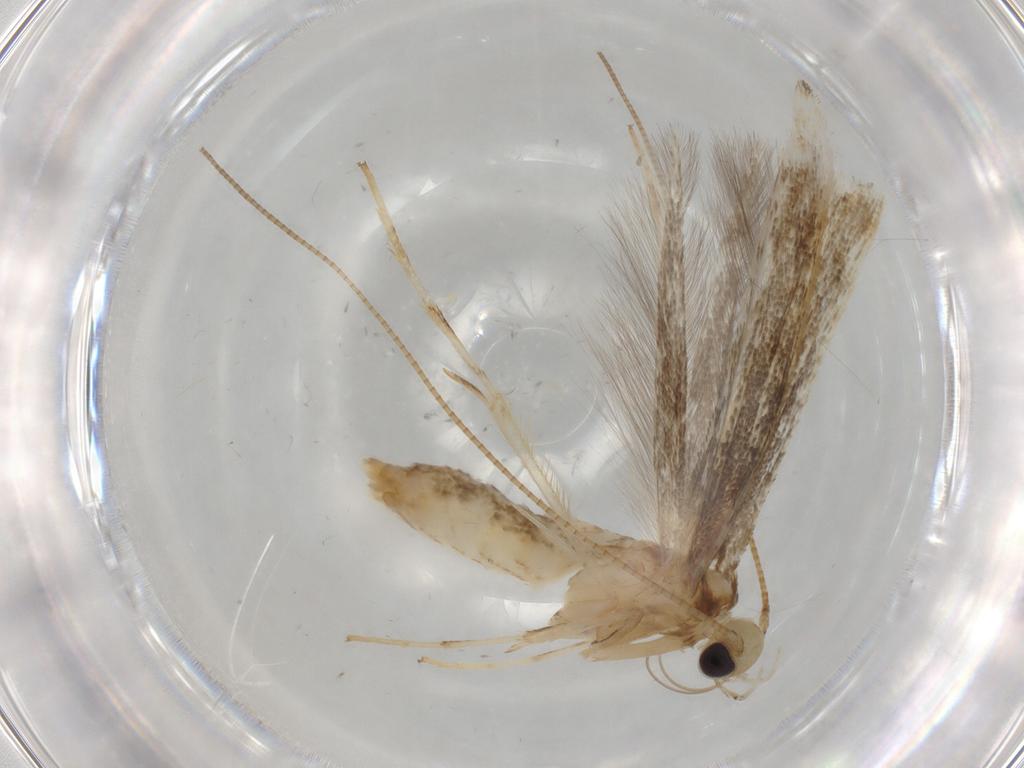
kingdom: Animalia
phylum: Arthropoda
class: Insecta
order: Lepidoptera
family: Gracillariidae
